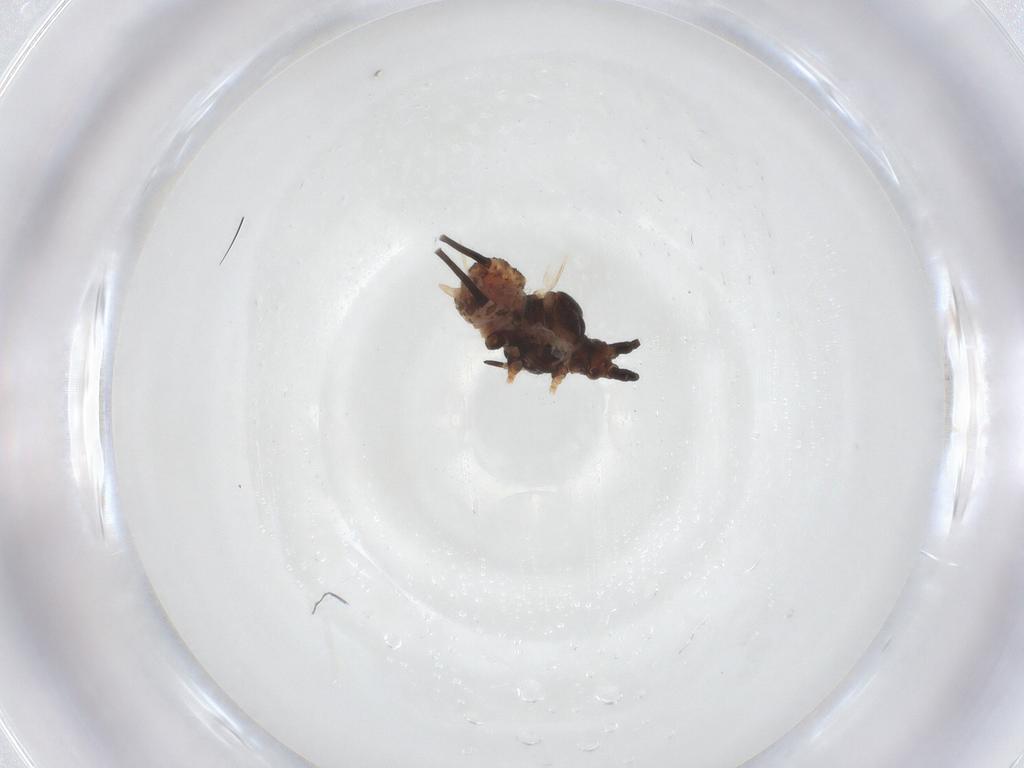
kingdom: Animalia
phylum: Arthropoda
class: Insecta
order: Hemiptera
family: Aphididae
